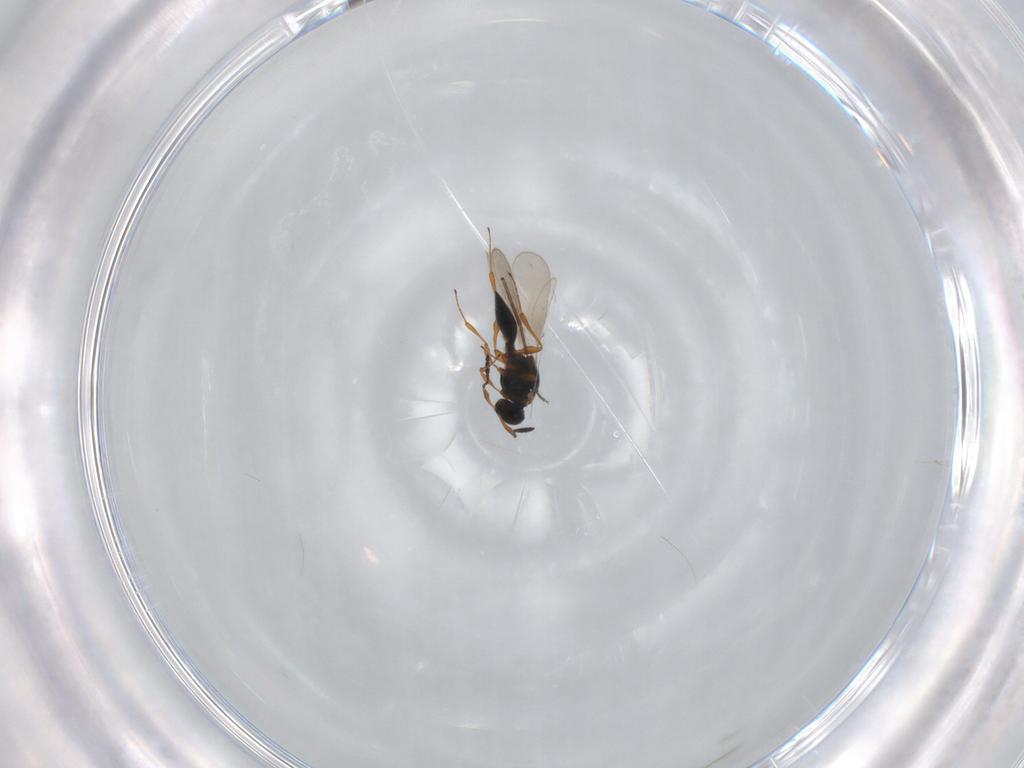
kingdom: Animalia
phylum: Arthropoda
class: Insecta
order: Hymenoptera
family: Platygastridae
